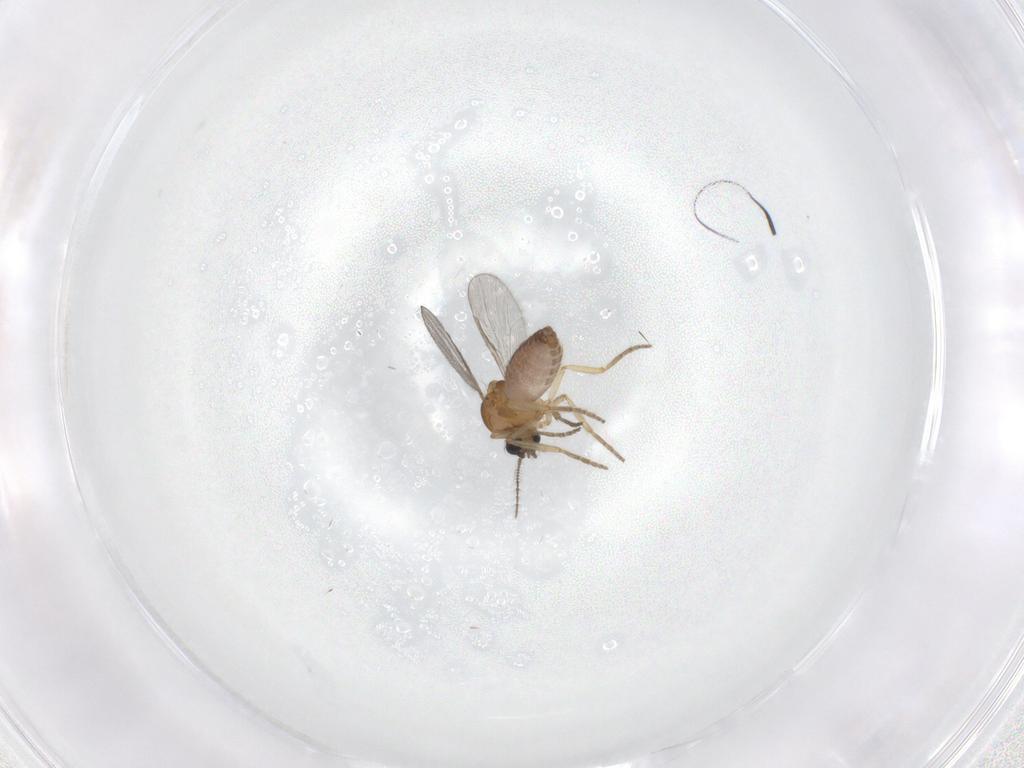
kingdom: Animalia
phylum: Arthropoda
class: Insecta
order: Diptera
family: Ceratopogonidae
